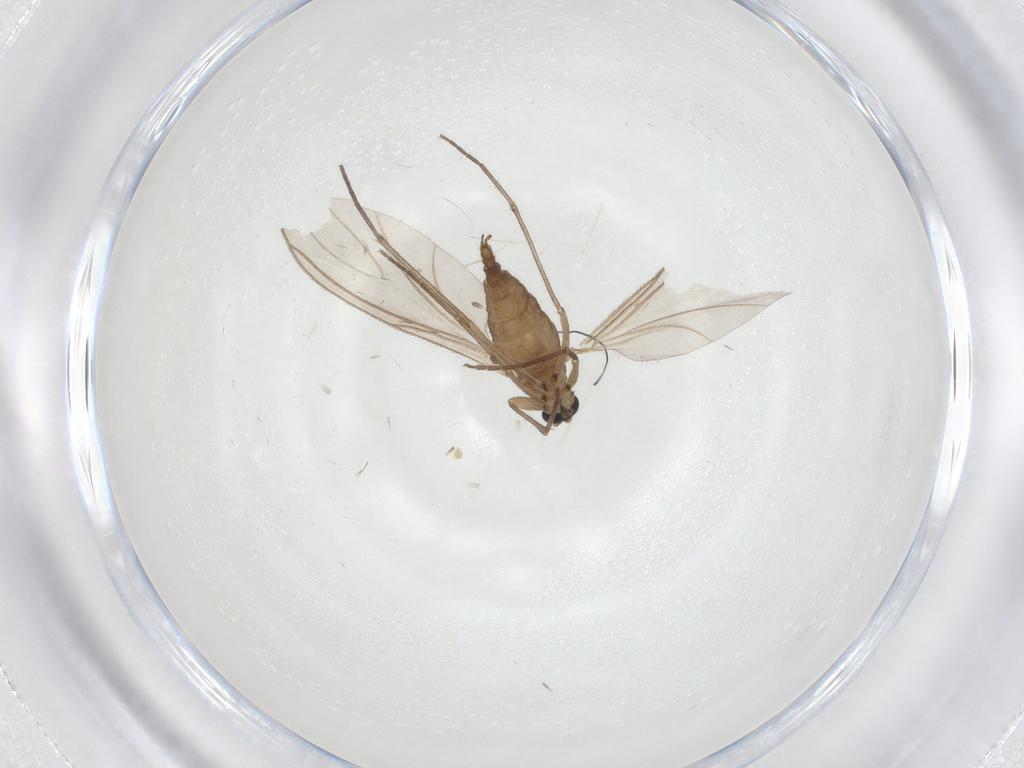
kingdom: Animalia
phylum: Arthropoda
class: Insecta
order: Diptera
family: Sciaridae
